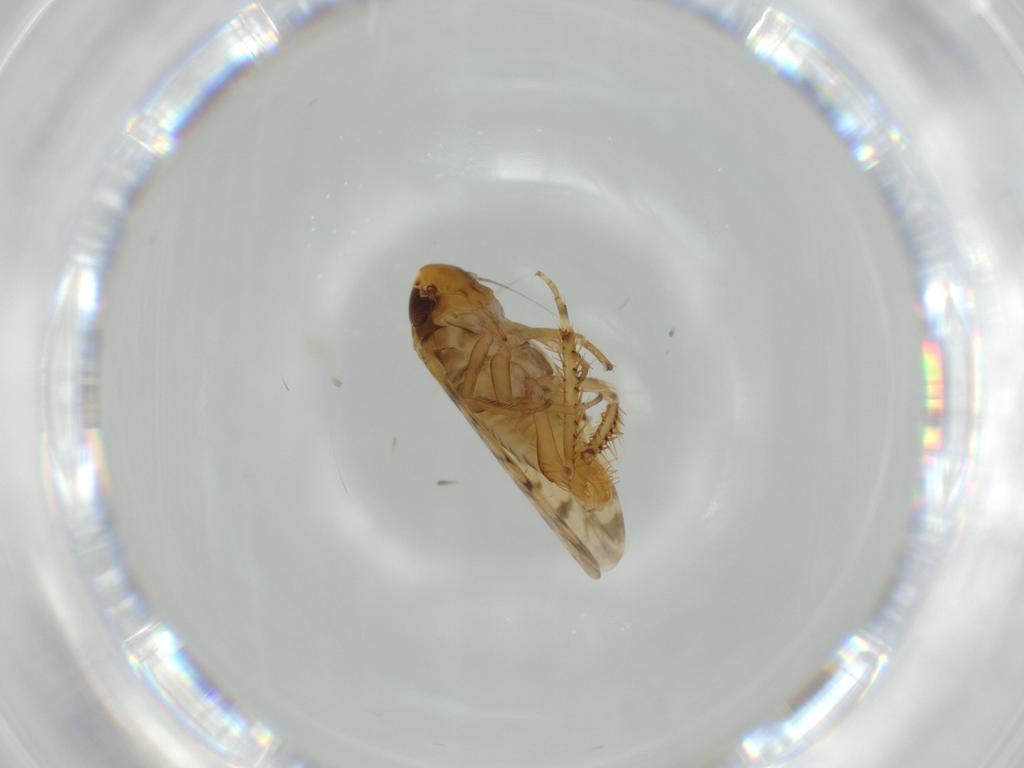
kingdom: Animalia
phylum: Arthropoda
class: Insecta
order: Hemiptera
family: Cicadellidae
